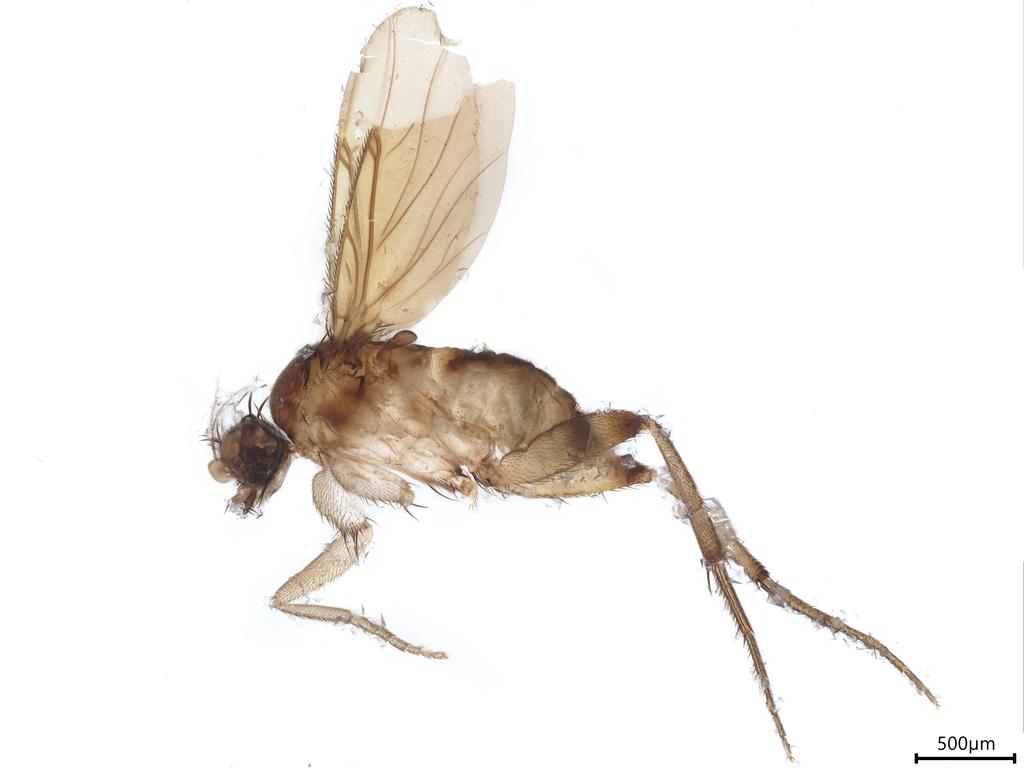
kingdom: Animalia
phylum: Arthropoda
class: Insecta
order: Diptera
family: Phoridae
